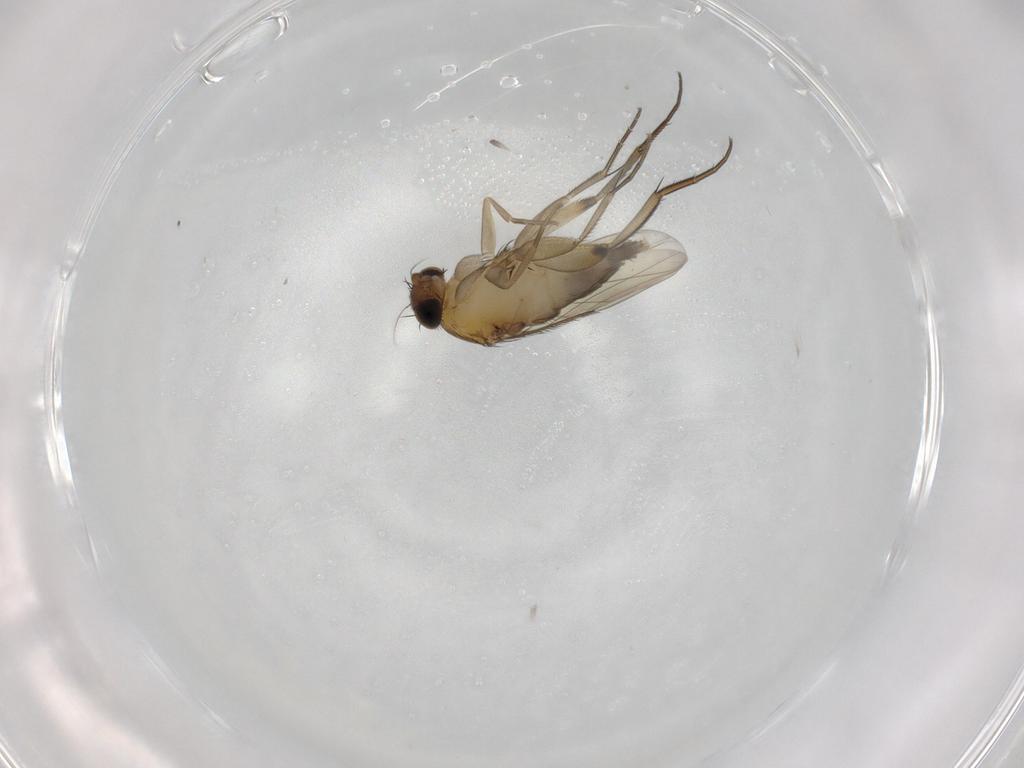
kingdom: Animalia
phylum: Arthropoda
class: Insecta
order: Diptera
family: Phoridae
